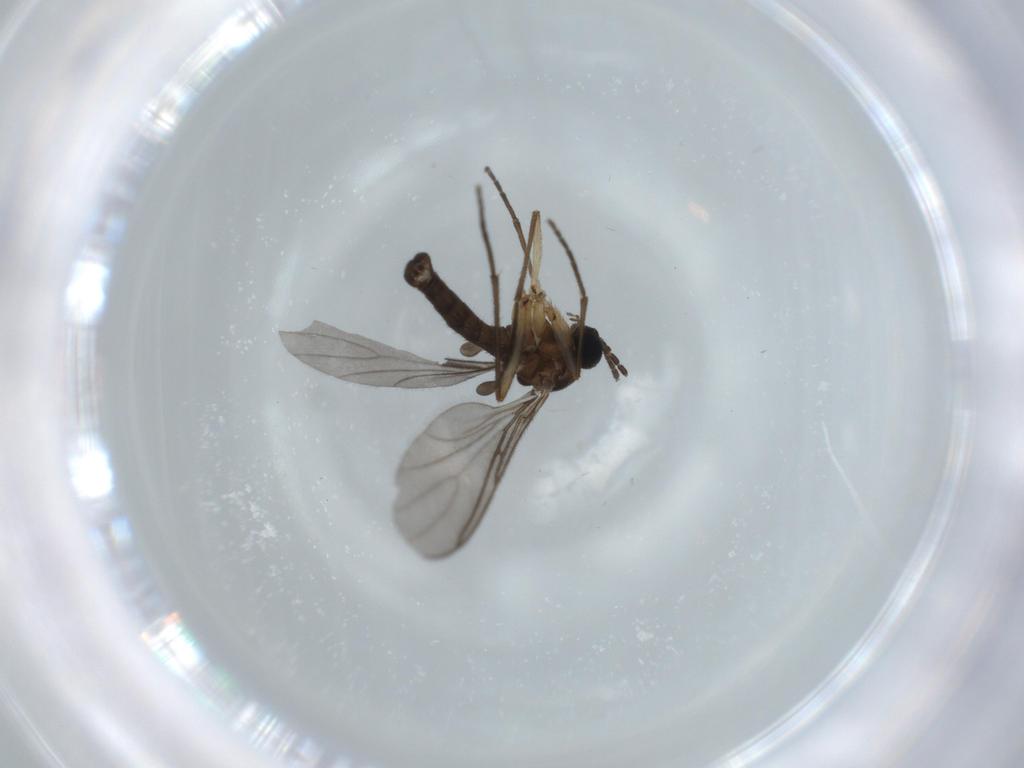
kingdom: Animalia
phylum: Arthropoda
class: Insecta
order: Diptera
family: Sciaridae
